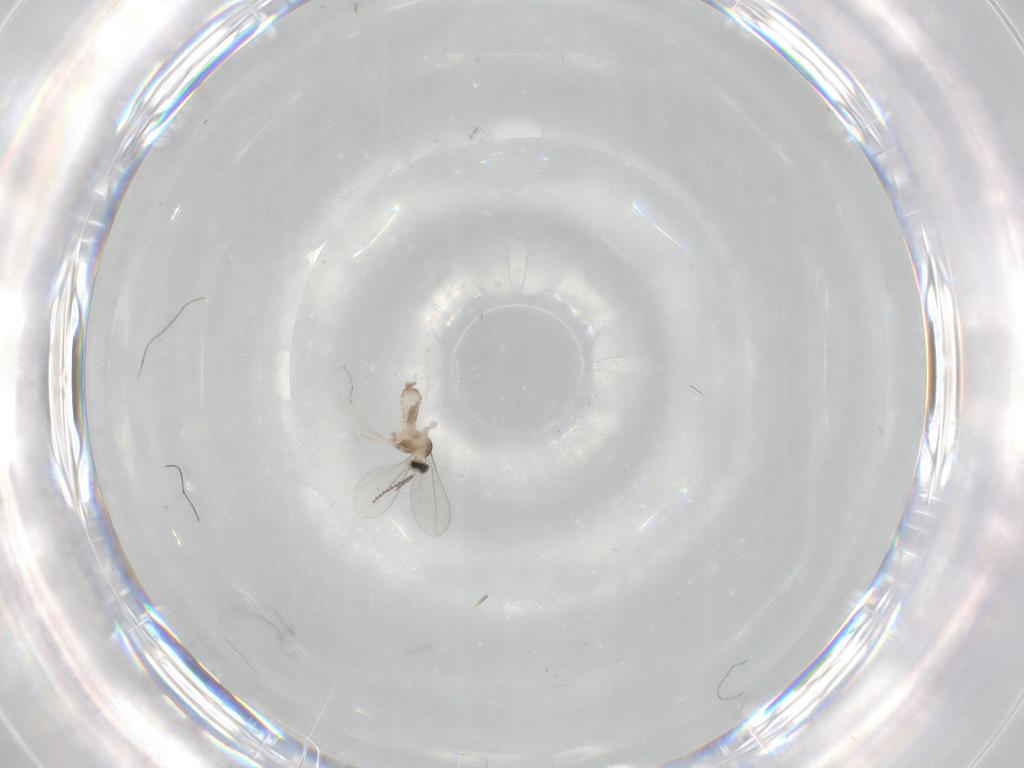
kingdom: Animalia
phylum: Arthropoda
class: Insecta
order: Diptera
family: Cecidomyiidae
